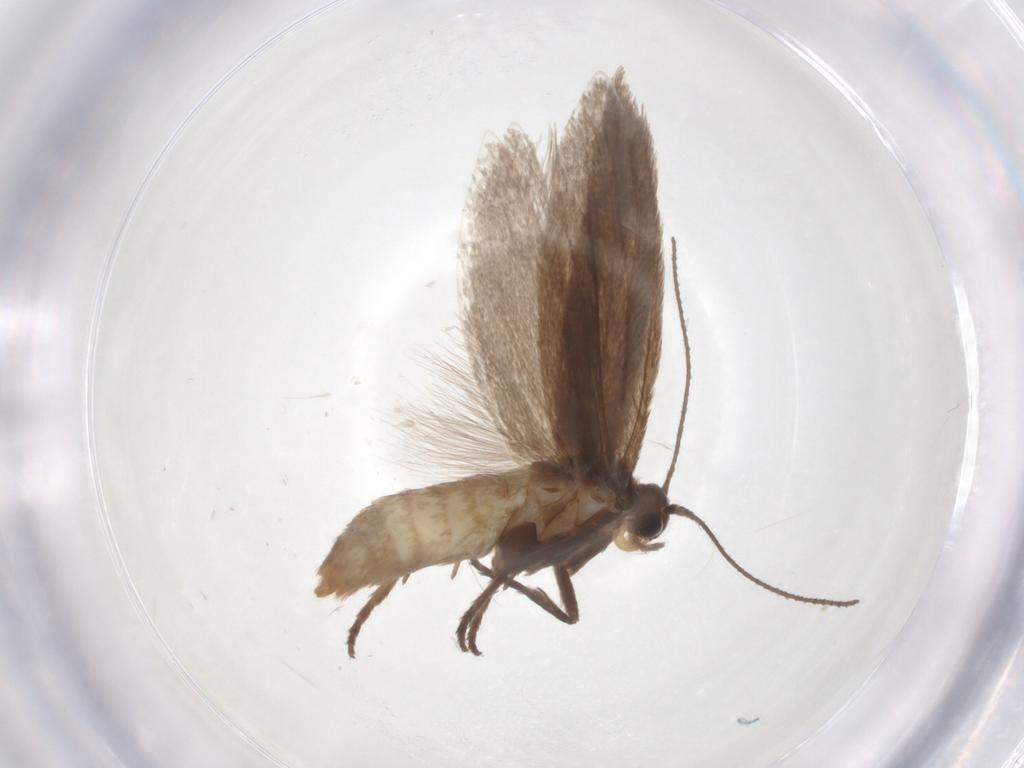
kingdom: Animalia
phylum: Arthropoda
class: Insecta
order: Lepidoptera
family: Limacodidae
